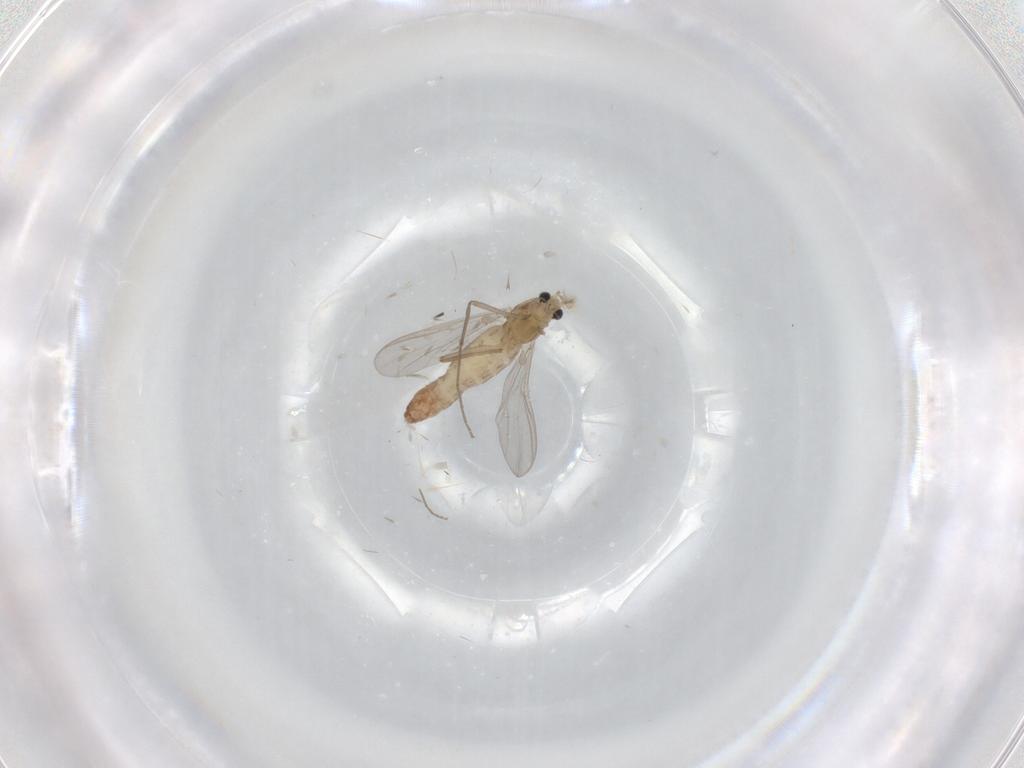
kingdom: Animalia
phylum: Arthropoda
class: Insecta
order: Diptera
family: Chironomidae
